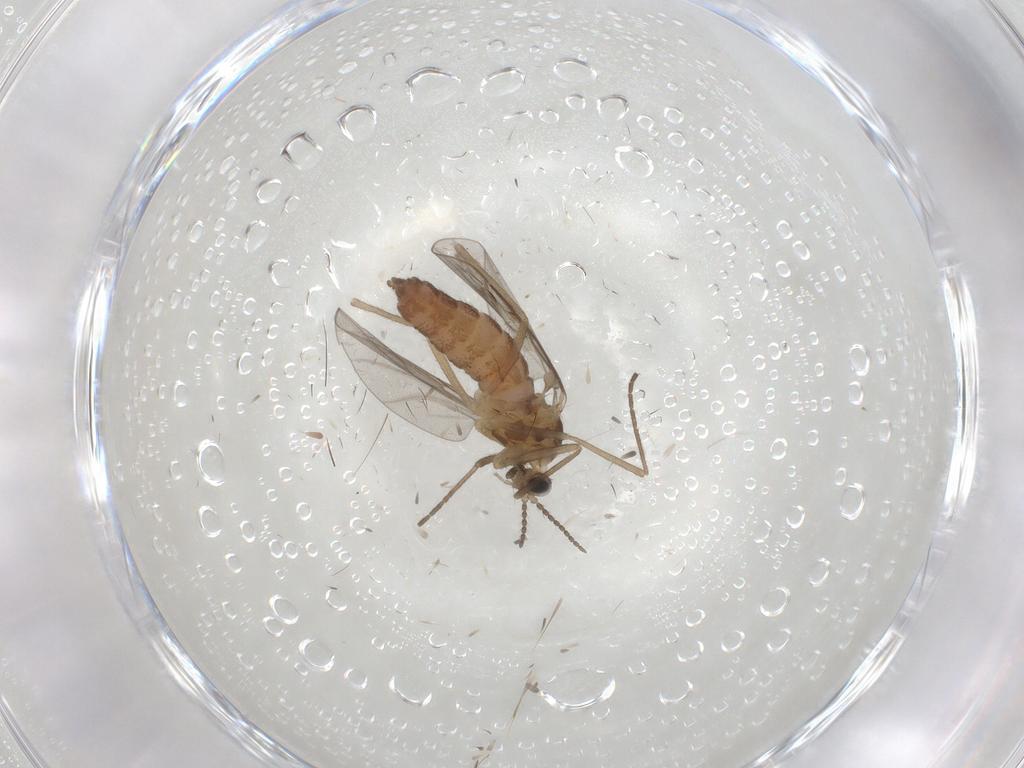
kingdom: Animalia
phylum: Arthropoda
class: Insecta
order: Diptera
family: Cecidomyiidae
